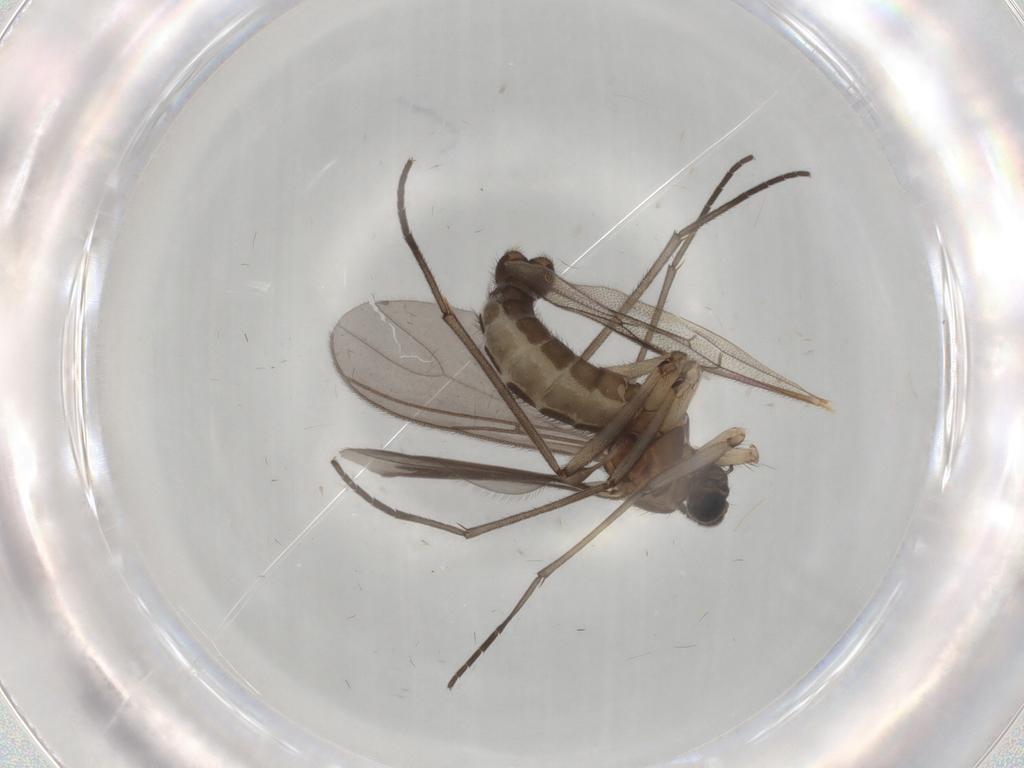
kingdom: Animalia
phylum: Arthropoda
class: Insecta
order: Diptera
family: Sciaridae
